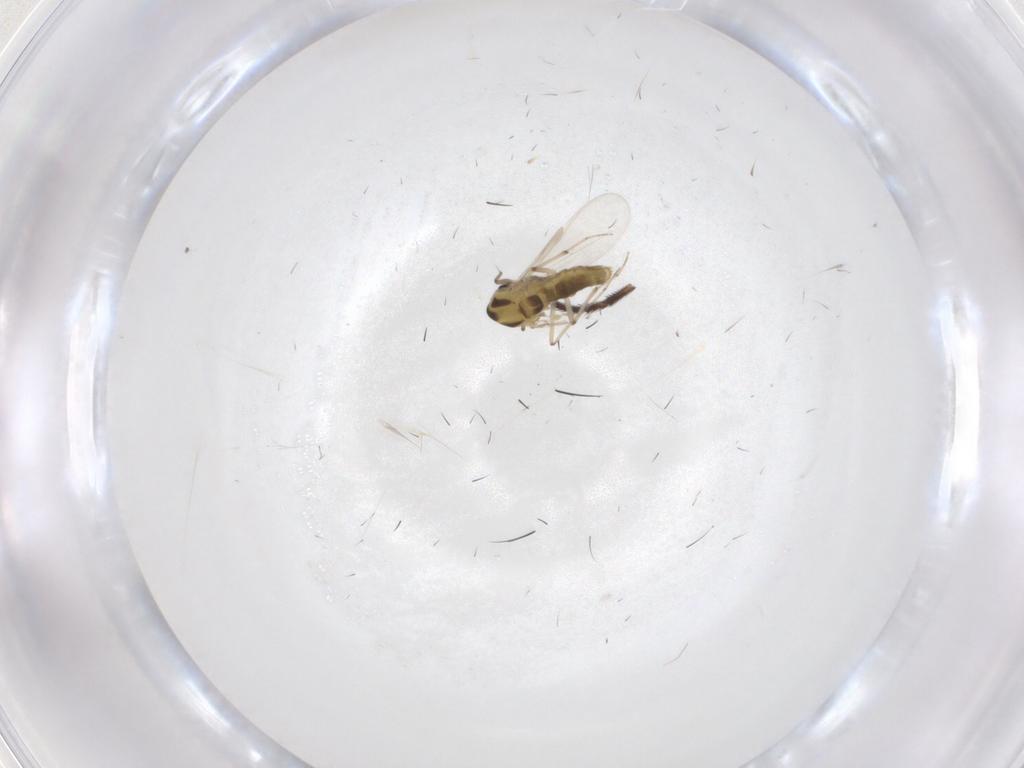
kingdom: Animalia
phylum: Arthropoda
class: Insecta
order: Diptera
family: Chironomidae
